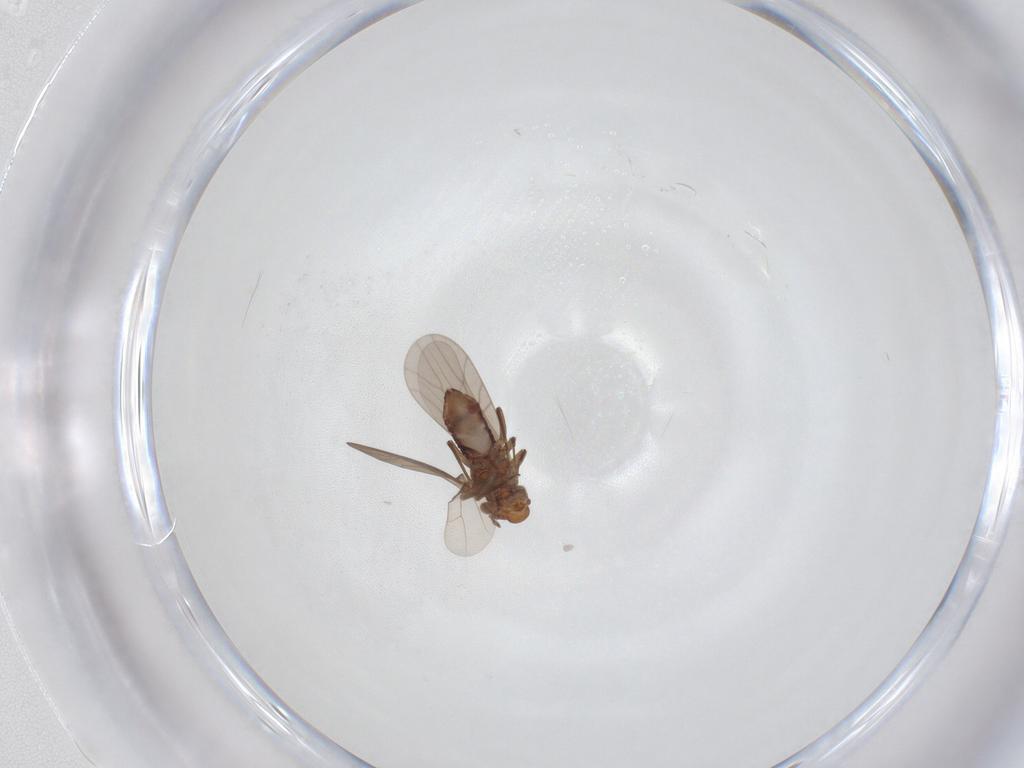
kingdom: Animalia
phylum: Arthropoda
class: Insecta
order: Psocodea
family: Lepidopsocidae
